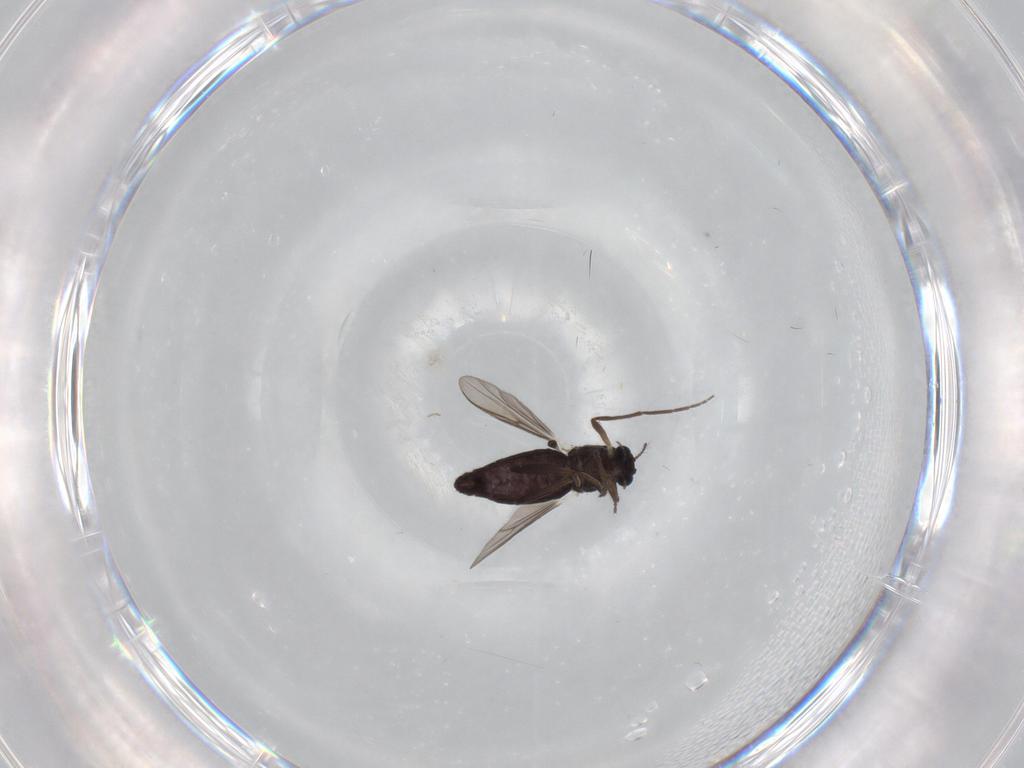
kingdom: Animalia
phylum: Arthropoda
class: Insecta
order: Diptera
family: Chironomidae
